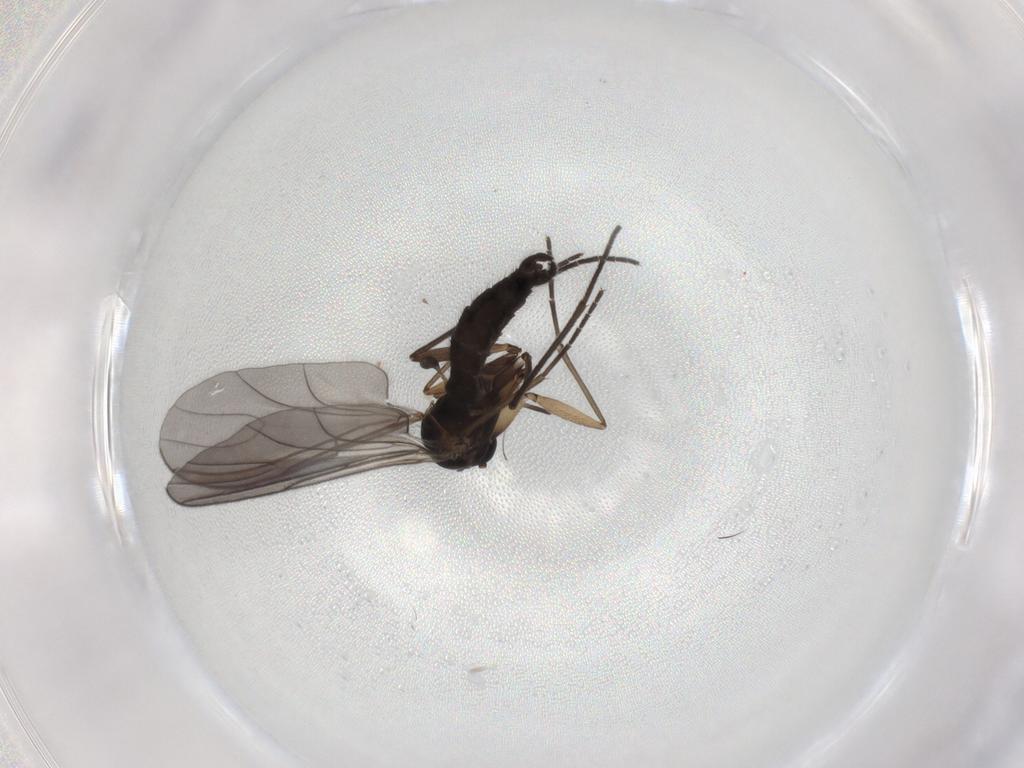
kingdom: Animalia
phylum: Arthropoda
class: Insecta
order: Diptera
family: Sciaridae
